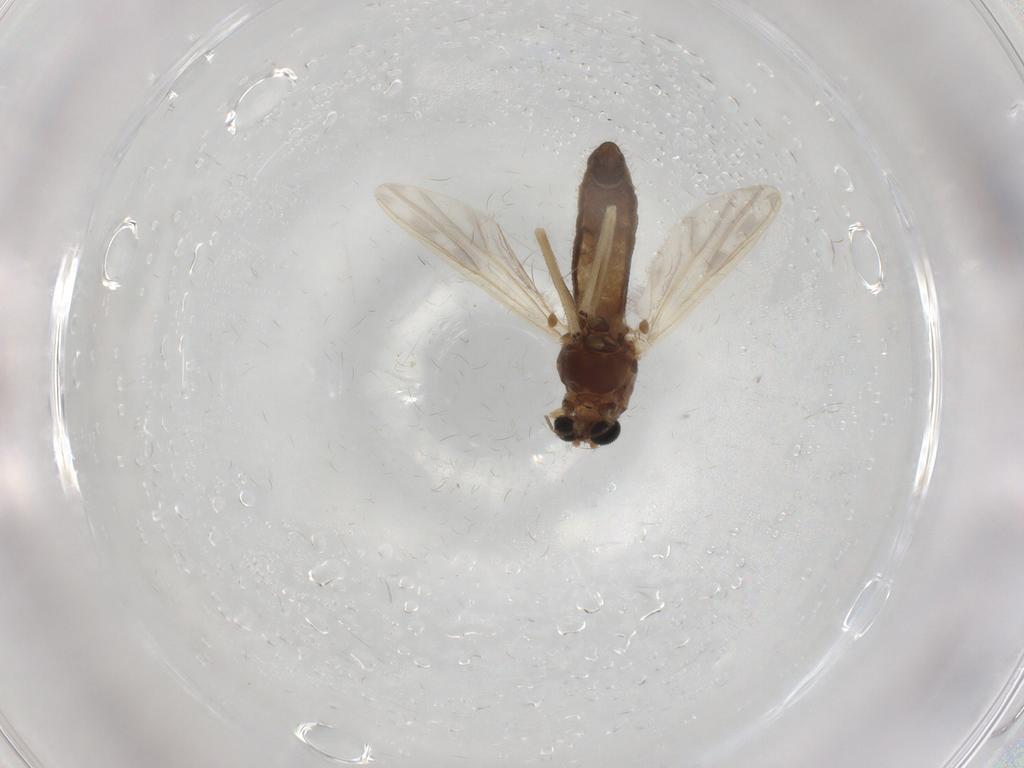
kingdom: Animalia
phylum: Arthropoda
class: Insecta
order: Diptera
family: Chironomidae
